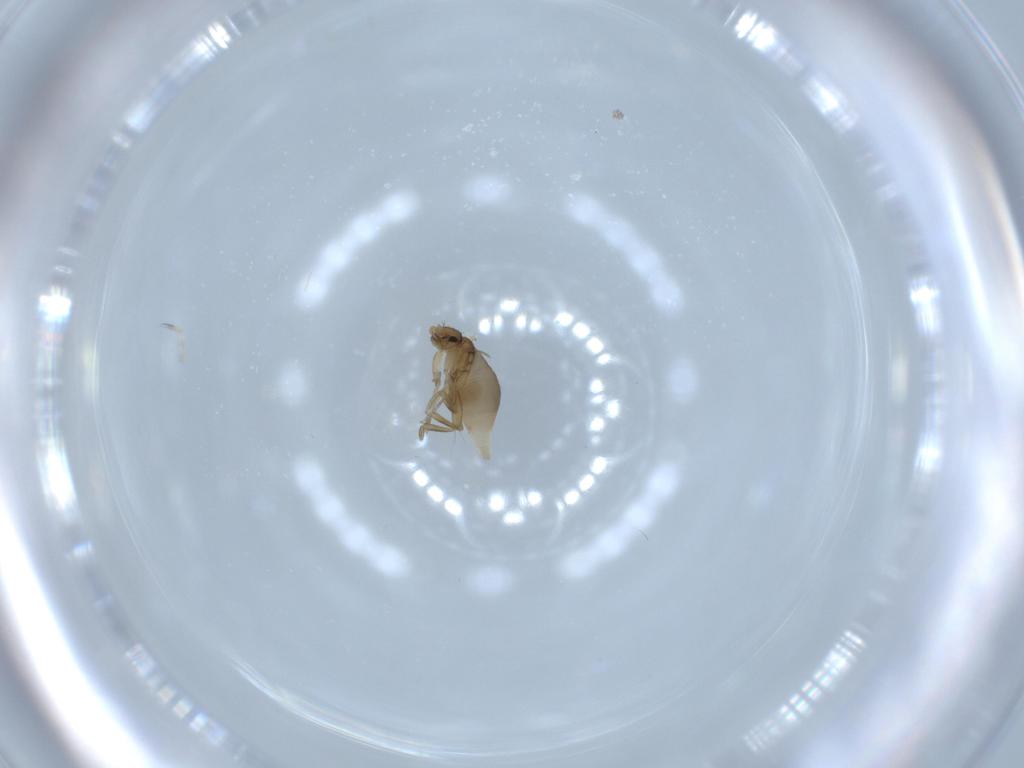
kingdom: Animalia
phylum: Arthropoda
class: Insecta
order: Diptera
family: Phoridae
